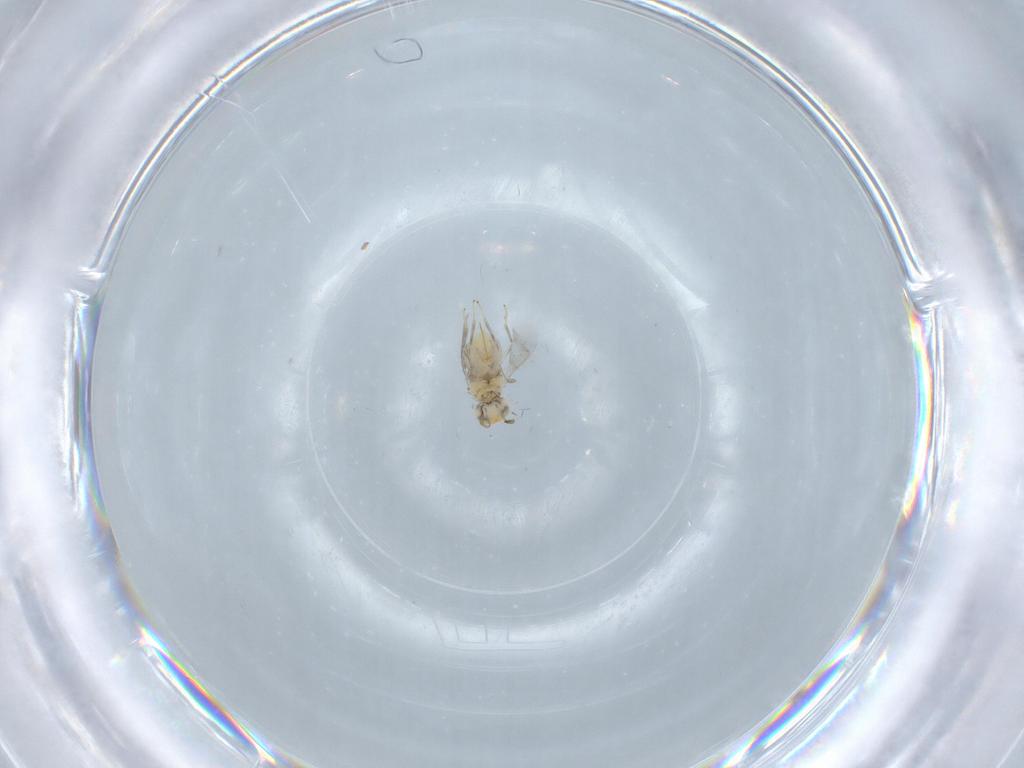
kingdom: Animalia
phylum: Arthropoda
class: Insecta
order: Hymenoptera
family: Aphelinidae
